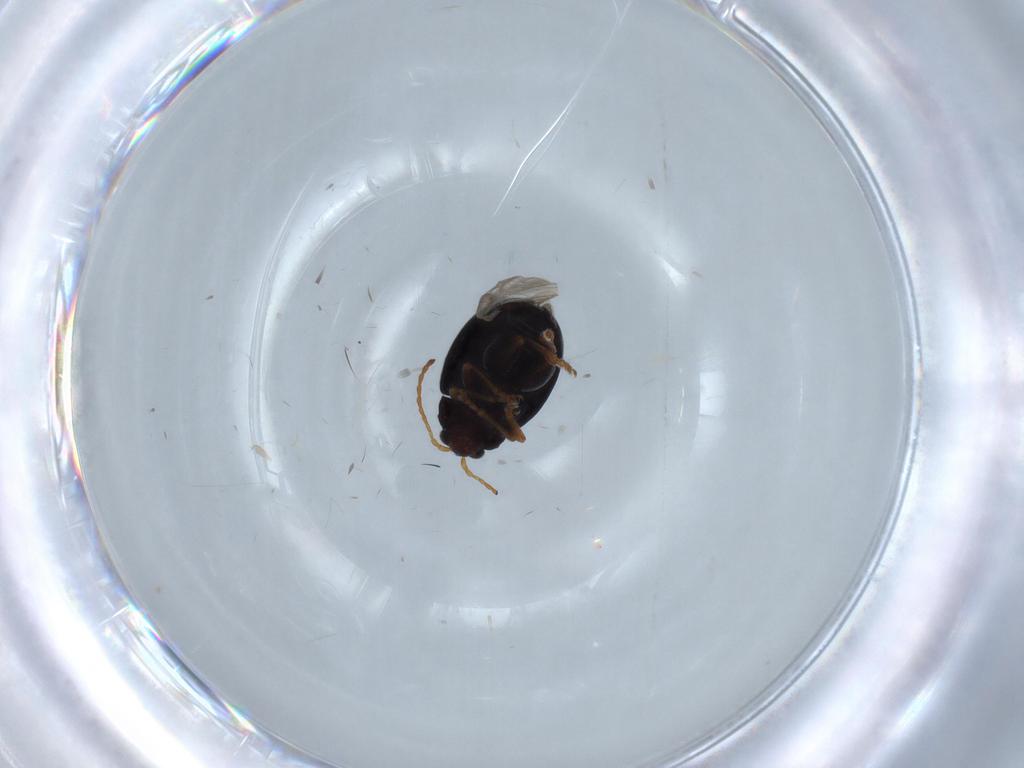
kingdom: Animalia
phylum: Arthropoda
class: Insecta
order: Coleoptera
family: Chrysomelidae
